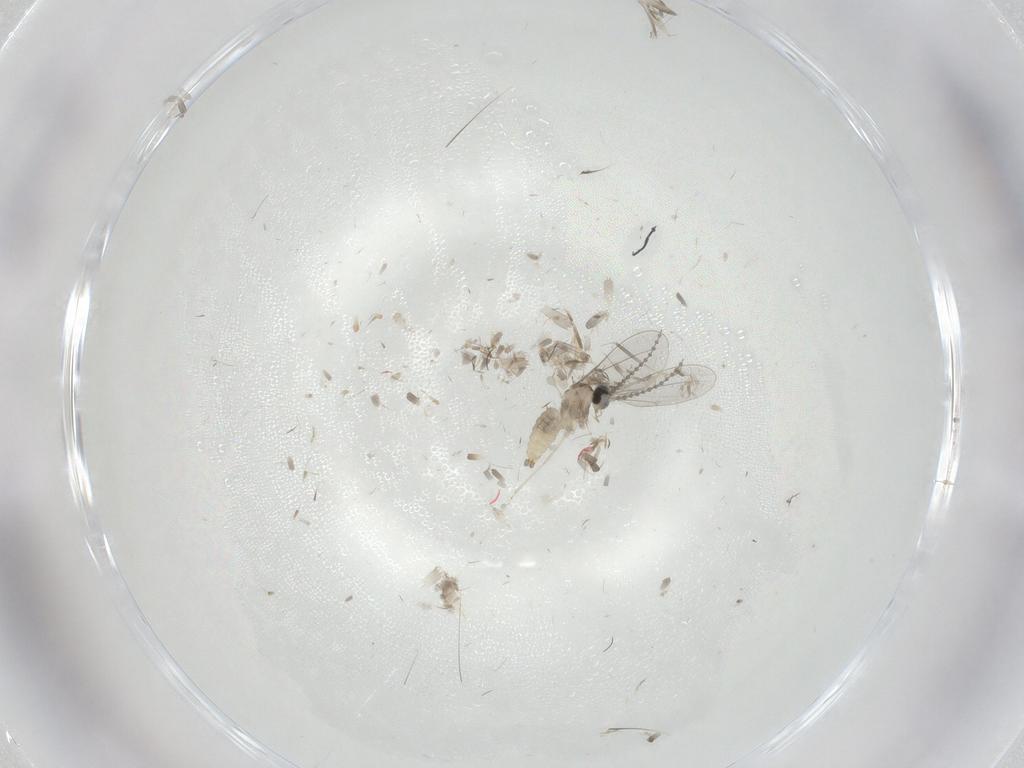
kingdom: Animalia
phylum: Arthropoda
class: Insecta
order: Diptera
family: Cecidomyiidae
